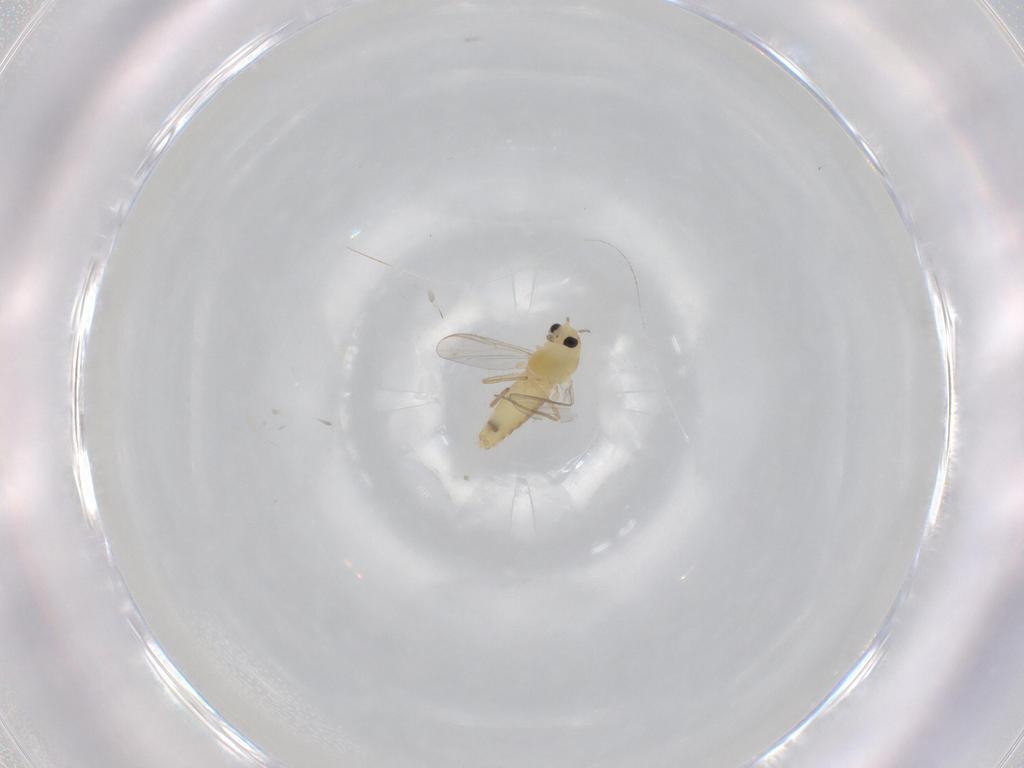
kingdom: Animalia
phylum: Arthropoda
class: Insecta
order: Diptera
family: Chironomidae
